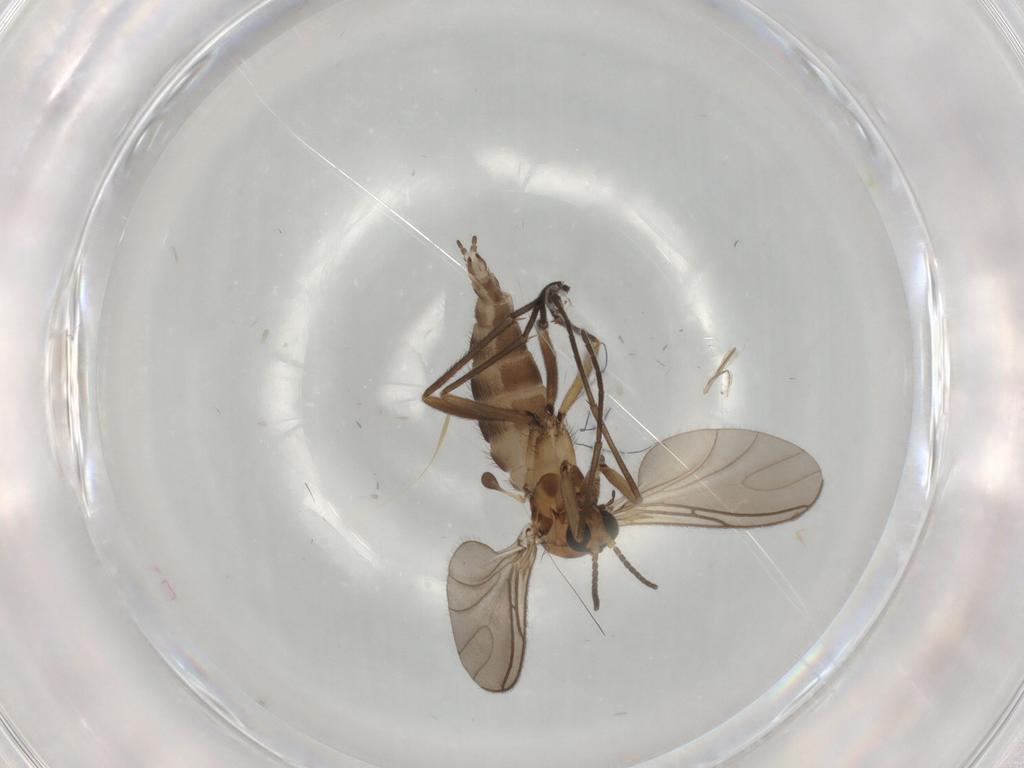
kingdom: Animalia
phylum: Arthropoda
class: Insecta
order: Diptera
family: Sciaridae
